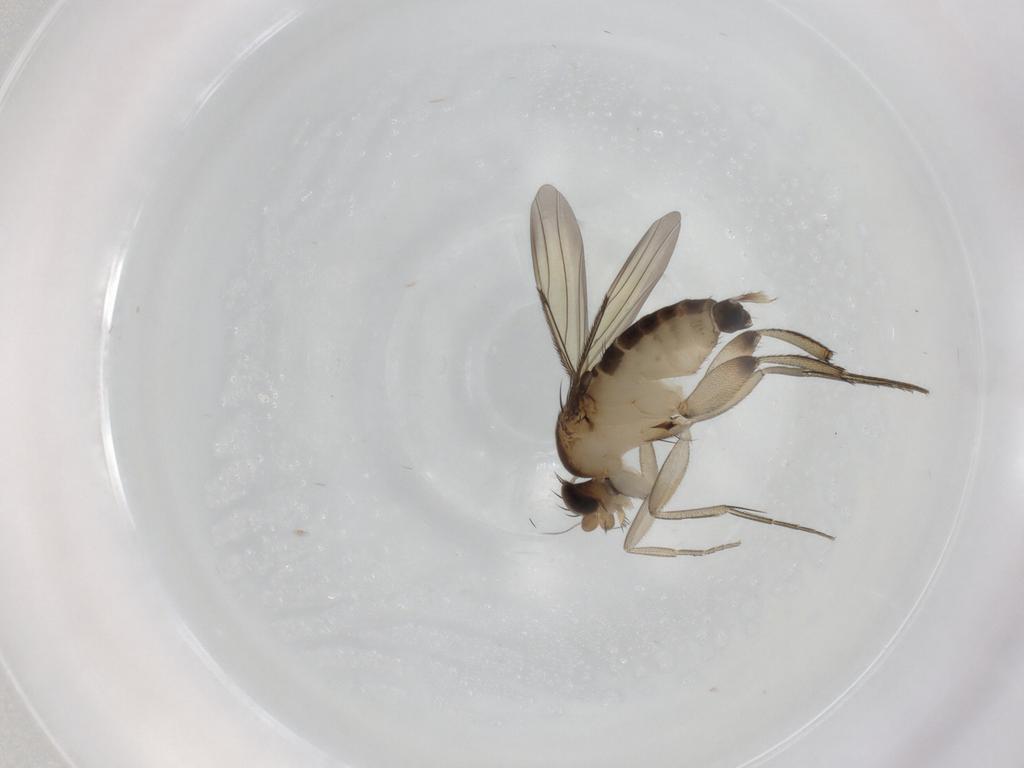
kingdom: Animalia
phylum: Arthropoda
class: Insecta
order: Diptera
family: Phoridae
